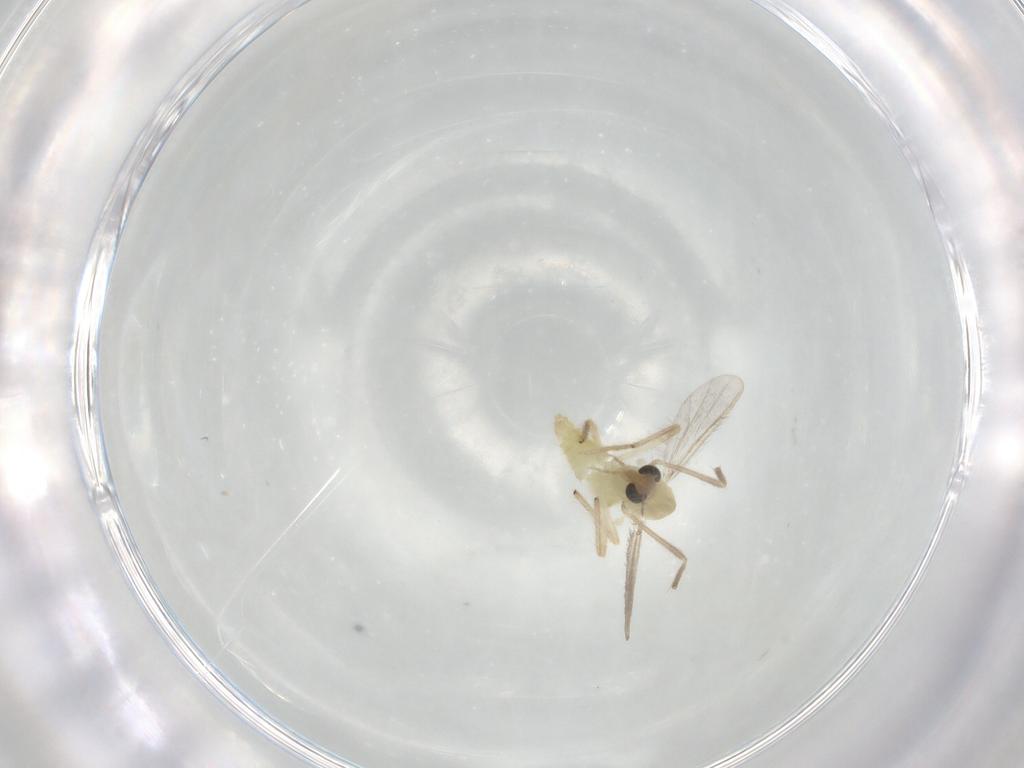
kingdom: Animalia
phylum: Arthropoda
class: Insecta
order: Diptera
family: Chironomidae
